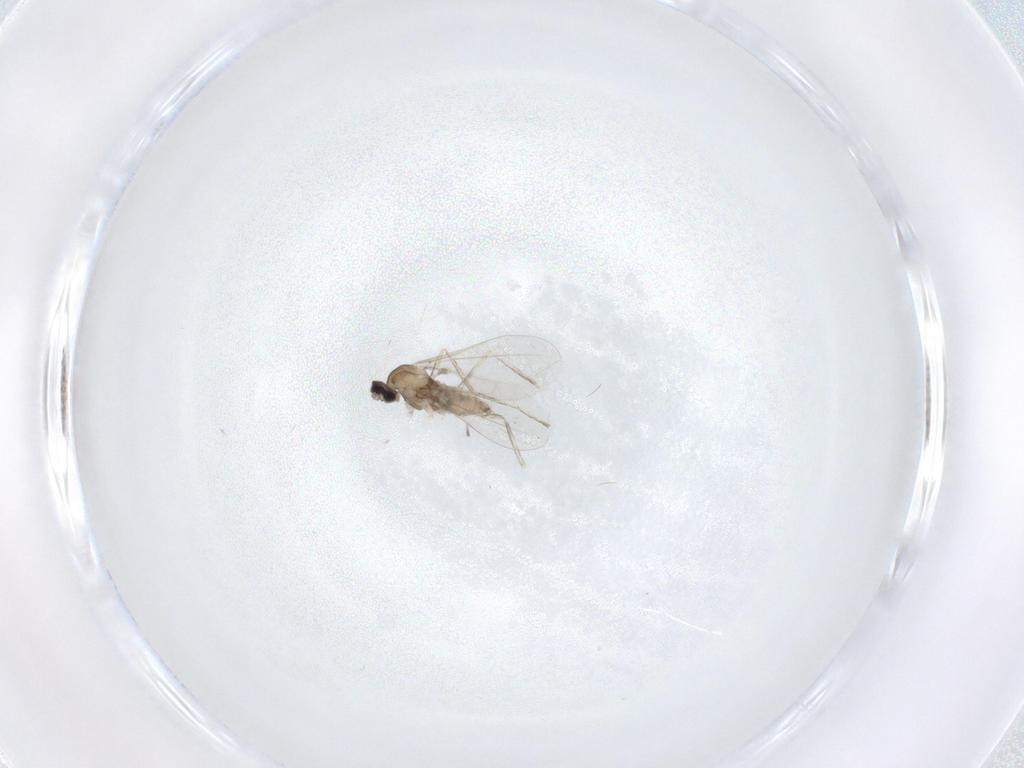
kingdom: Animalia
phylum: Arthropoda
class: Insecta
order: Diptera
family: Cecidomyiidae
